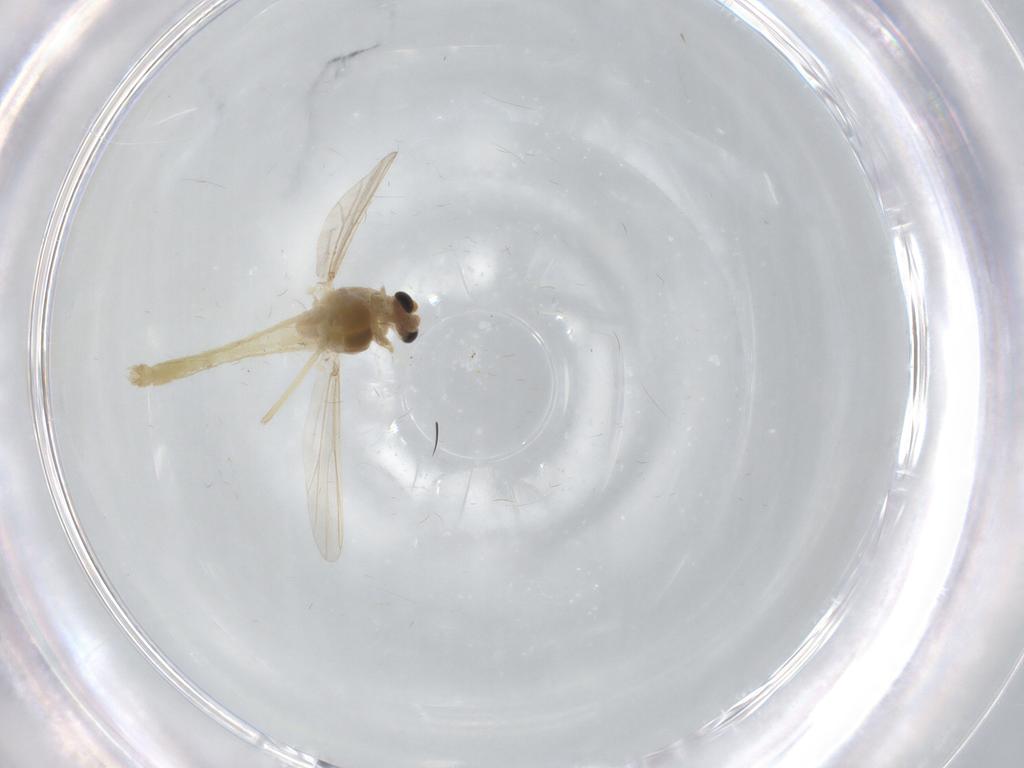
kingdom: Animalia
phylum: Arthropoda
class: Insecta
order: Diptera
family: Chironomidae
